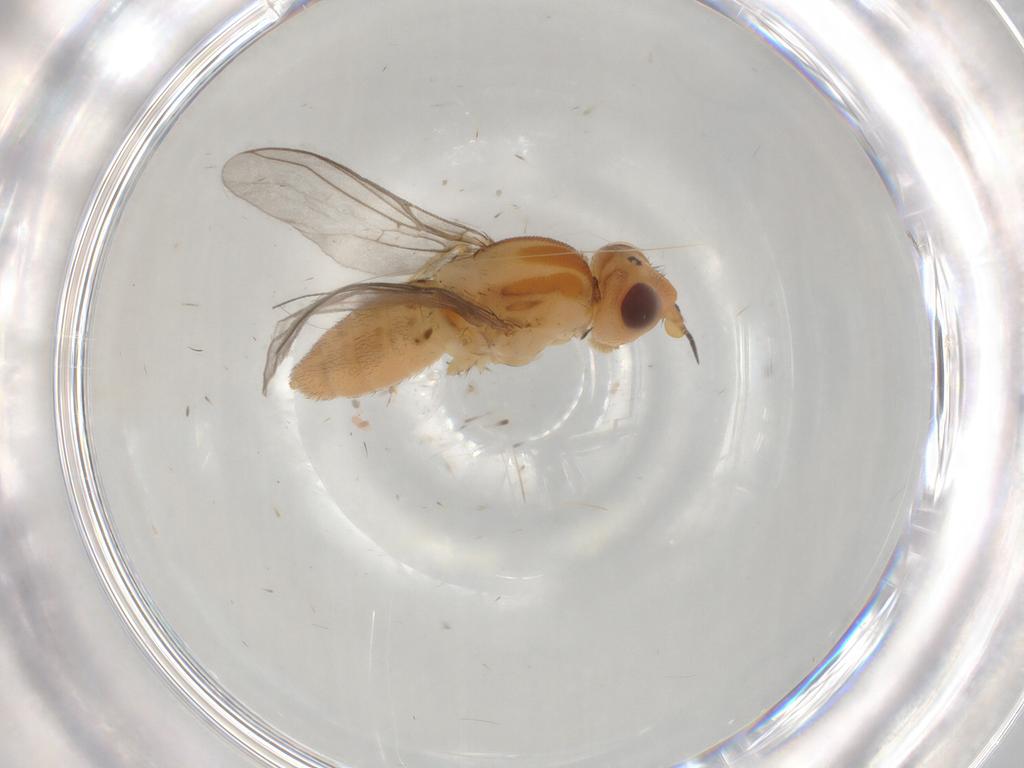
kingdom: Animalia
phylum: Arthropoda
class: Insecta
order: Diptera
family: Chloropidae
